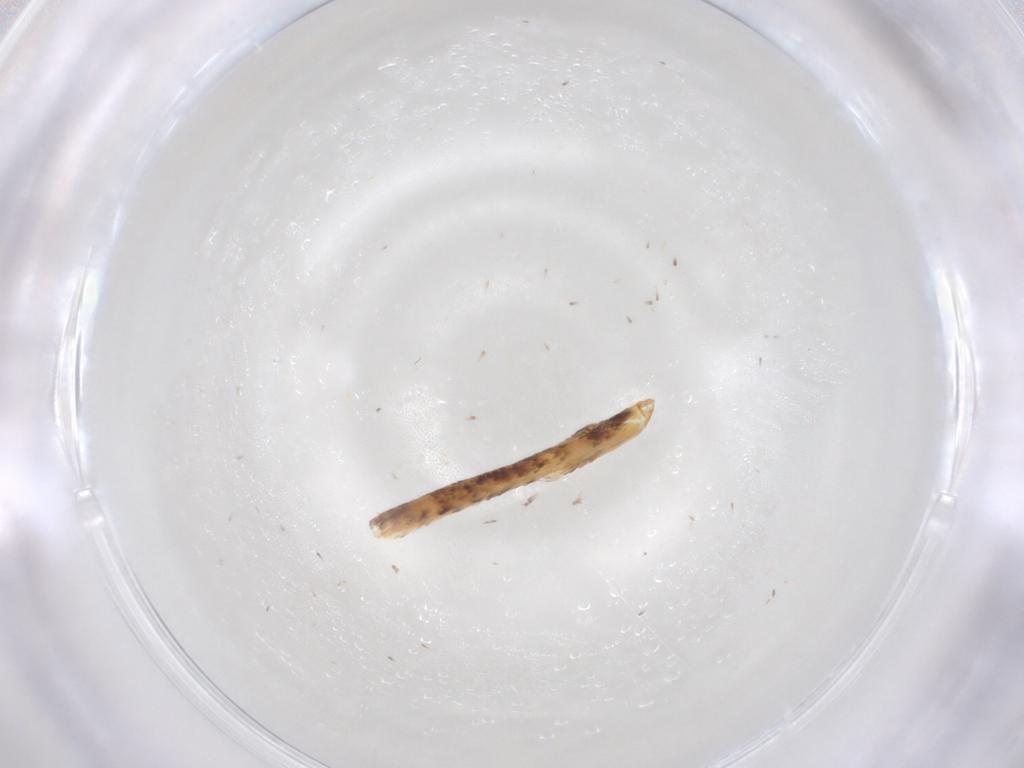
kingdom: Animalia
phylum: Arthropoda
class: Insecta
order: Lepidoptera
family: Geometridae
